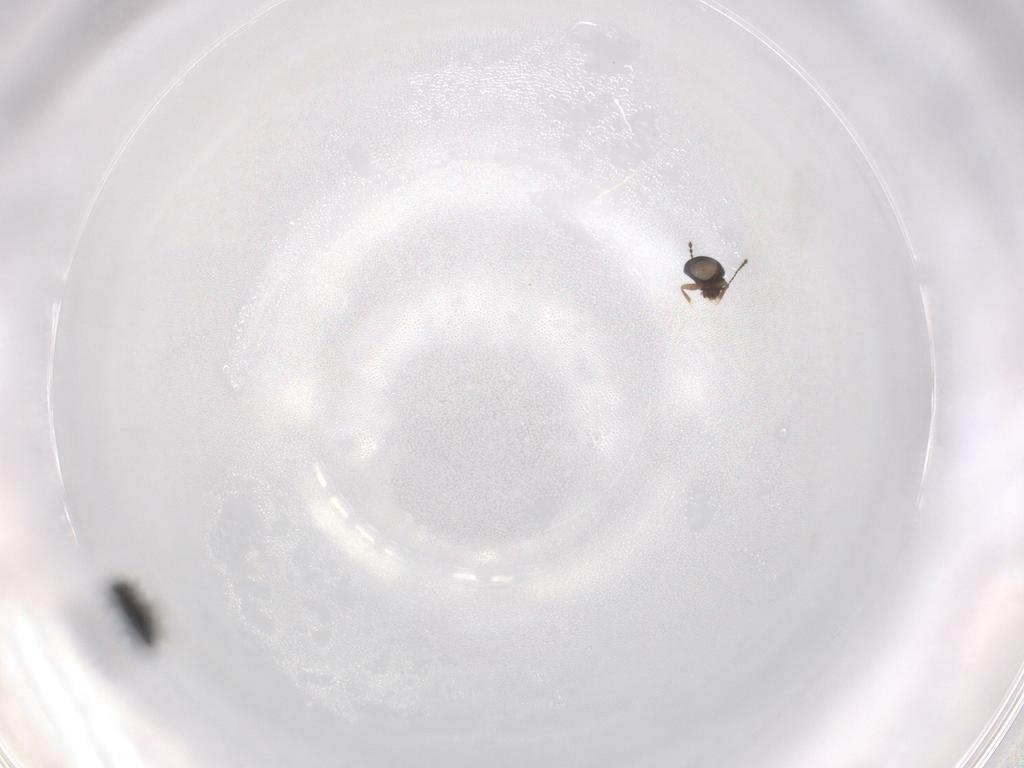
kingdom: Animalia
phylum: Arthropoda
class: Insecta
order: Coleoptera
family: Ptiliidae
